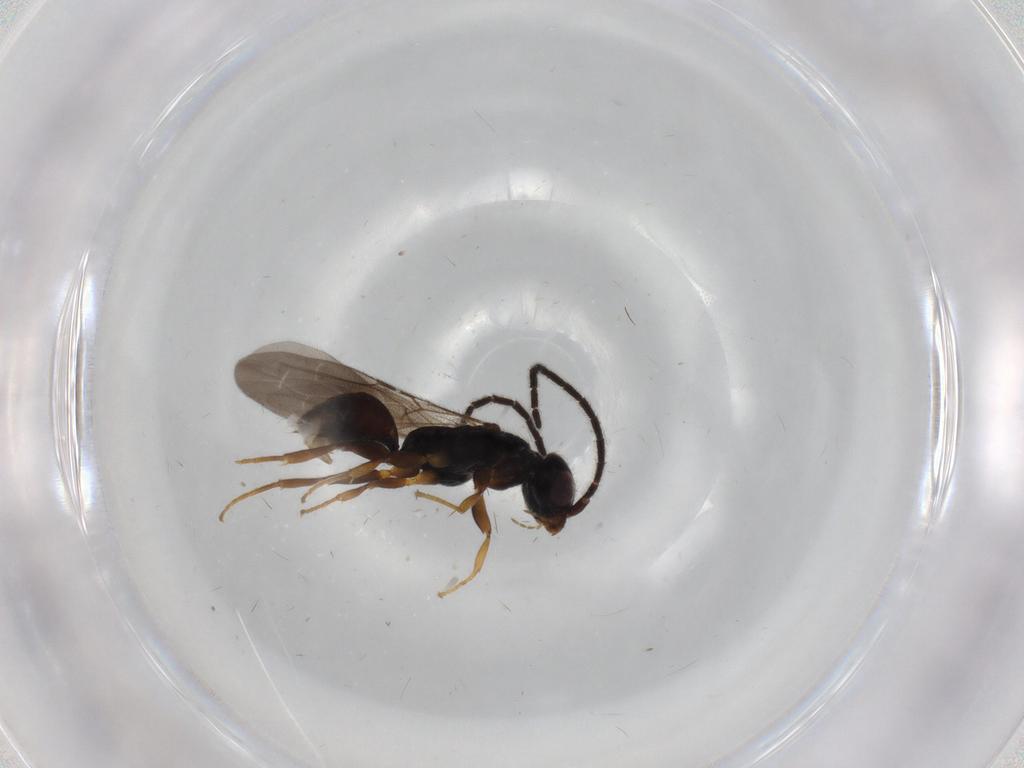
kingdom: Animalia
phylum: Arthropoda
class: Insecta
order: Hymenoptera
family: Bethylidae
